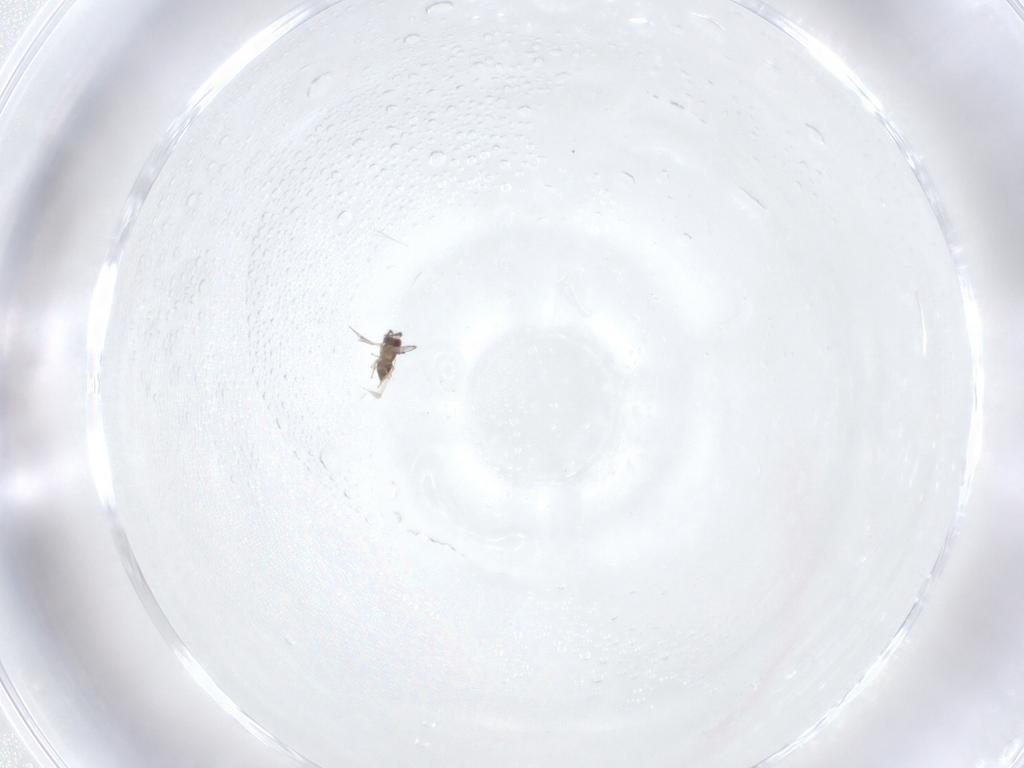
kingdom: Animalia
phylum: Arthropoda
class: Insecta
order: Hymenoptera
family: Trichogrammatidae
